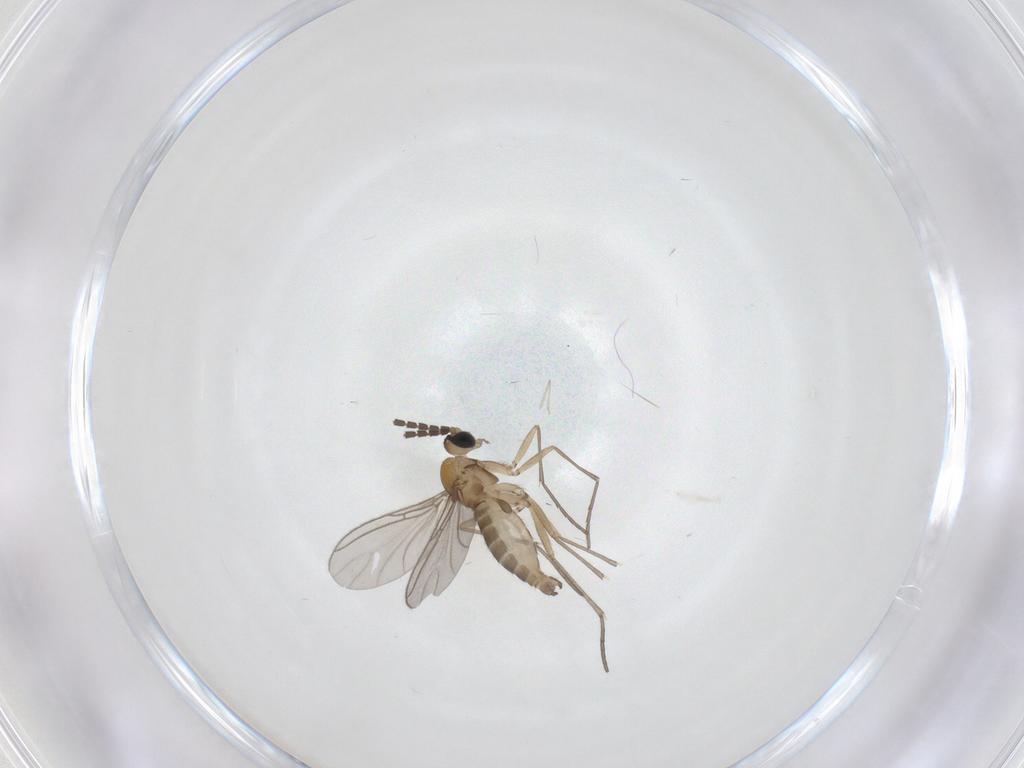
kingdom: Animalia
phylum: Arthropoda
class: Insecta
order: Diptera
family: Sciaridae
